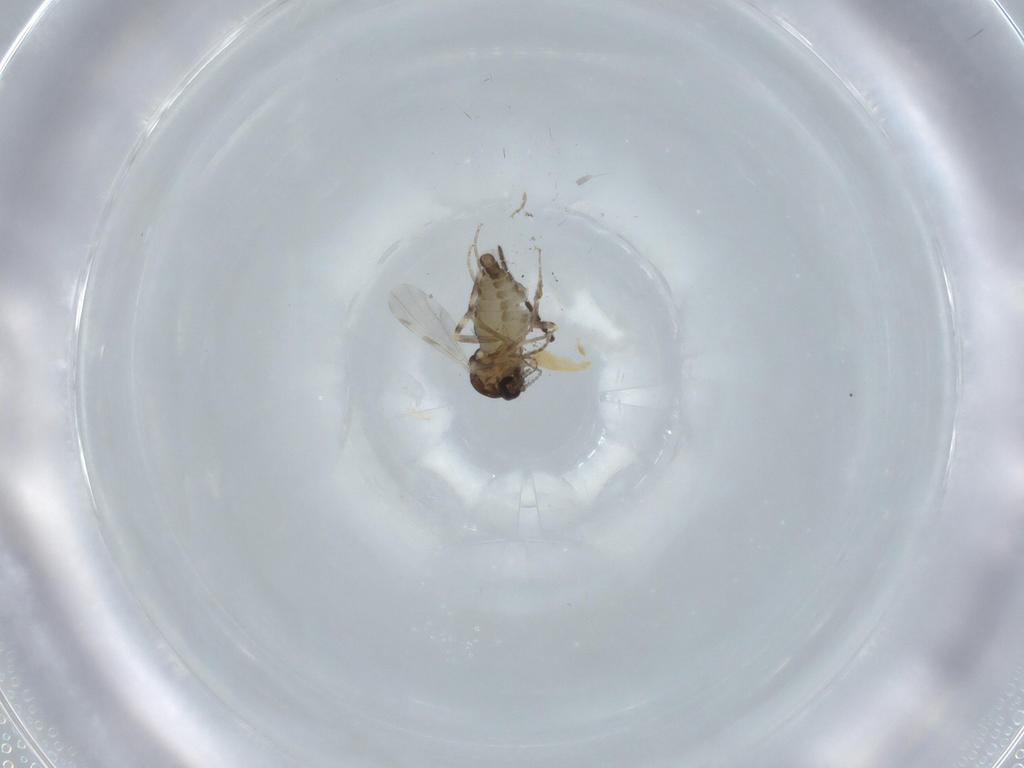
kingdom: Animalia
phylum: Arthropoda
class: Insecta
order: Diptera
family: Ceratopogonidae
